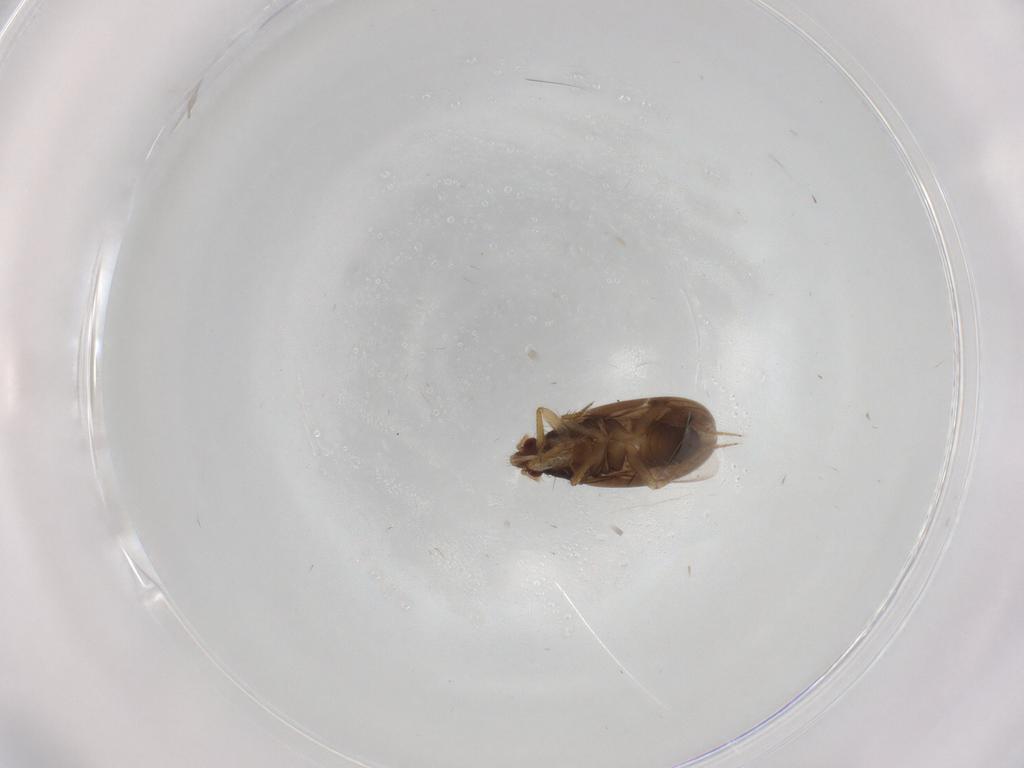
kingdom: Animalia
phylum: Arthropoda
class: Insecta
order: Hemiptera
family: Ceratocombidae
